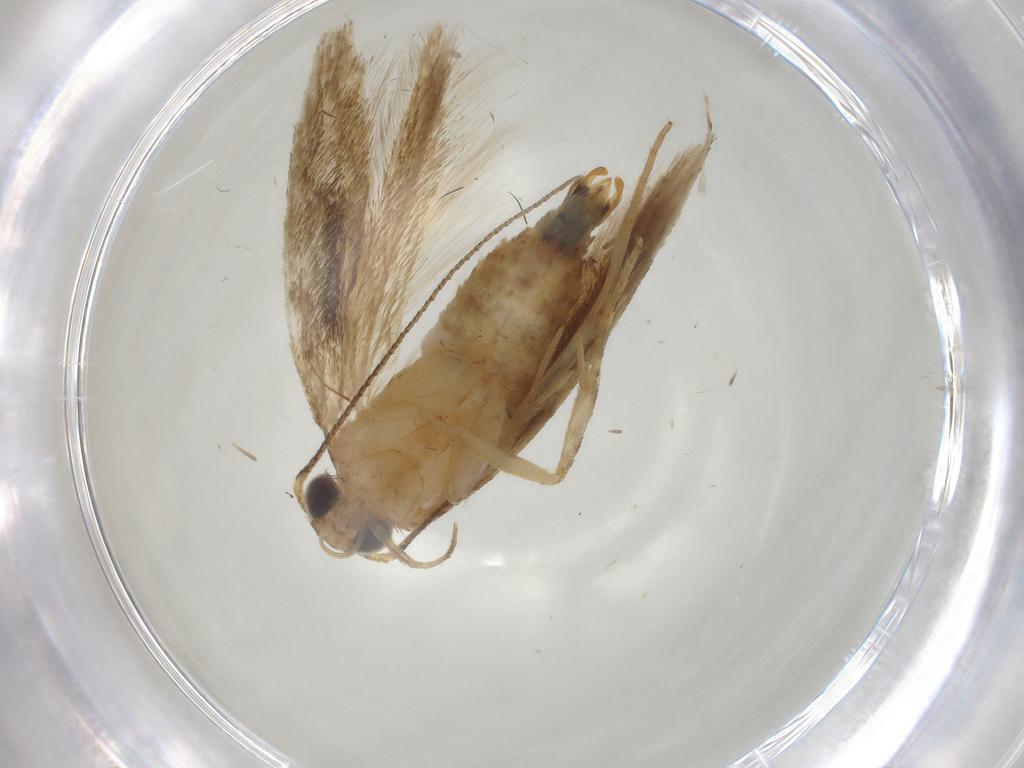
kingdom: Animalia
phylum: Arthropoda
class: Insecta
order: Lepidoptera
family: Gelechiidae
